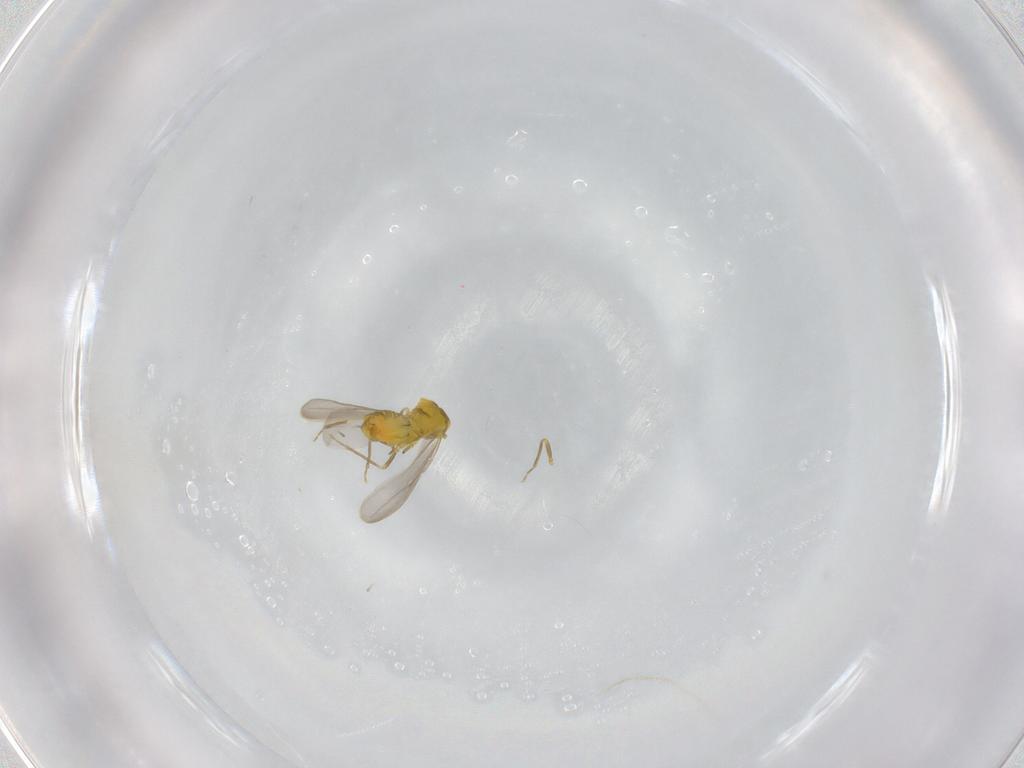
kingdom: Animalia
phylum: Arthropoda
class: Insecta
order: Hemiptera
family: Aleyrodidae
